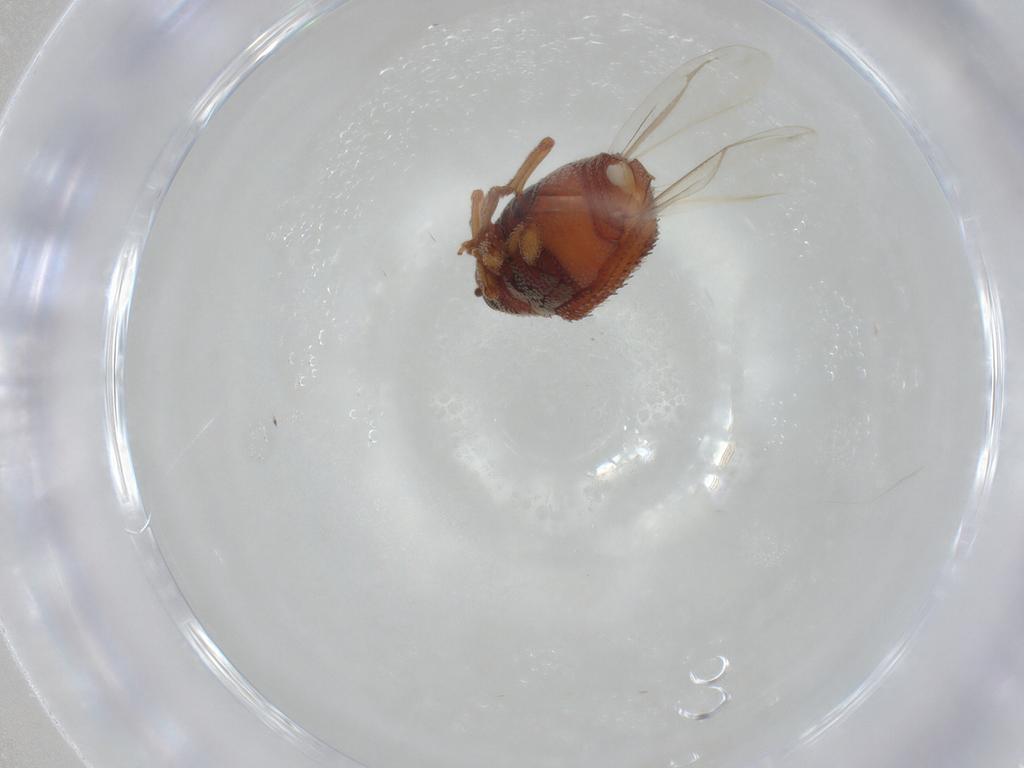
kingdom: Animalia
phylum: Arthropoda
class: Insecta
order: Coleoptera
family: Curculionidae
